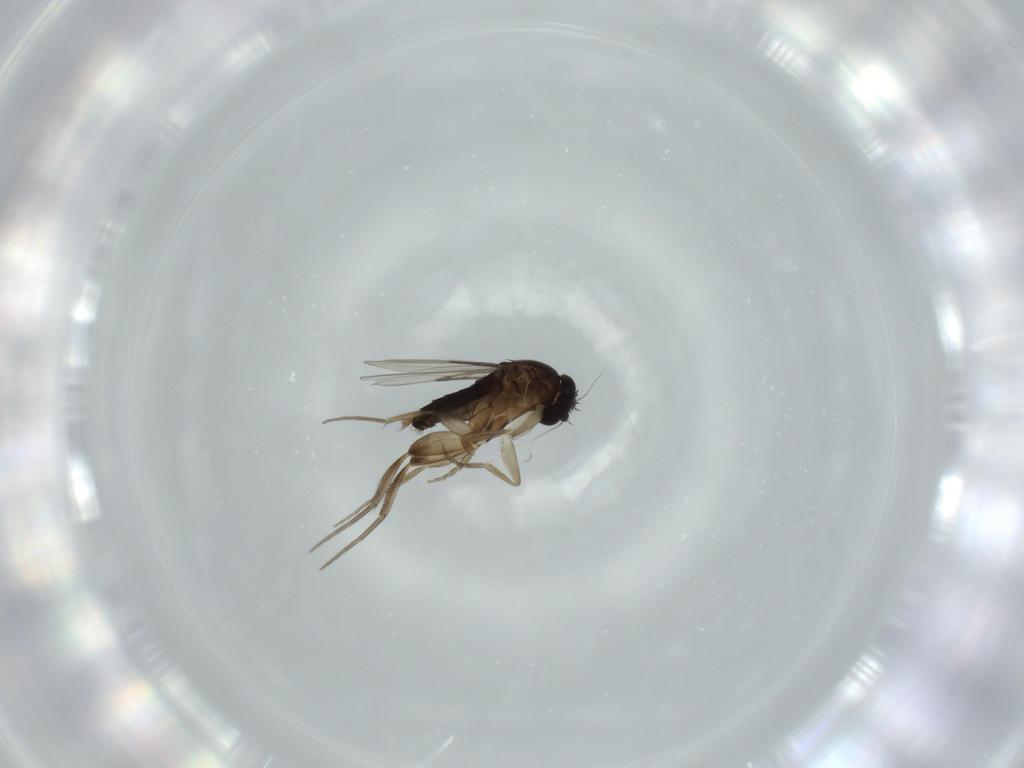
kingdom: Animalia
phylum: Arthropoda
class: Insecta
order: Diptera
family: Phoridae
